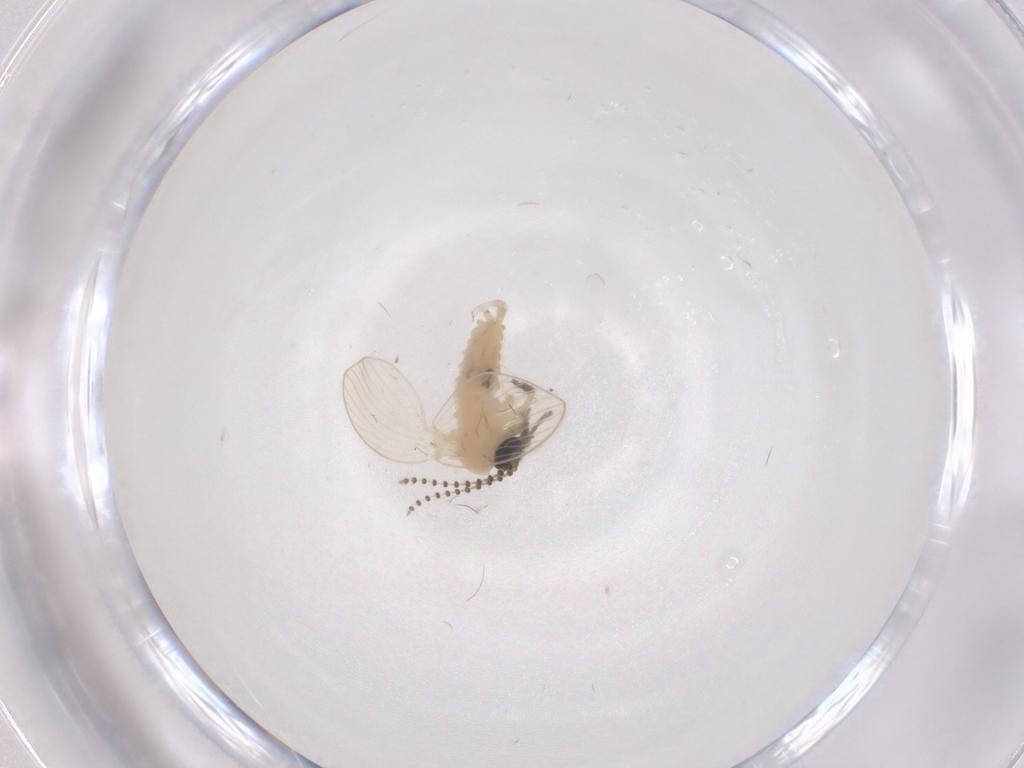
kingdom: Animalia
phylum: Arthropoda
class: Insecta
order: Diptera
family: Psychodidae
